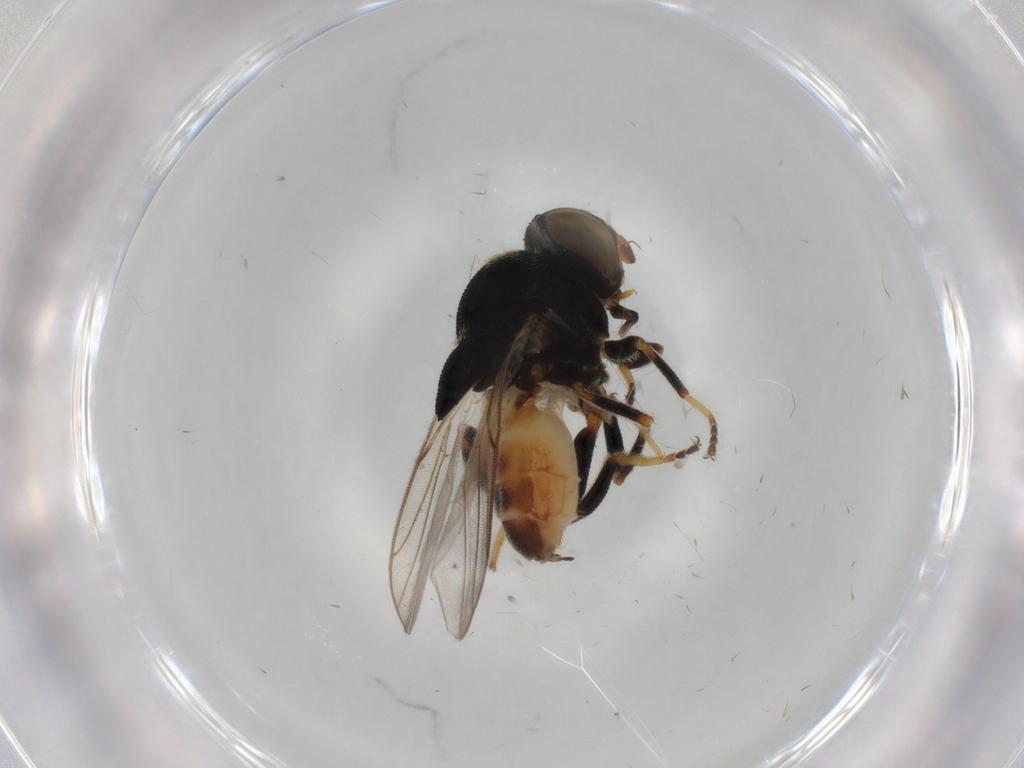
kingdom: Animalia
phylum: Arthropoda
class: Insecta
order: Diptera
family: Chloropidae
